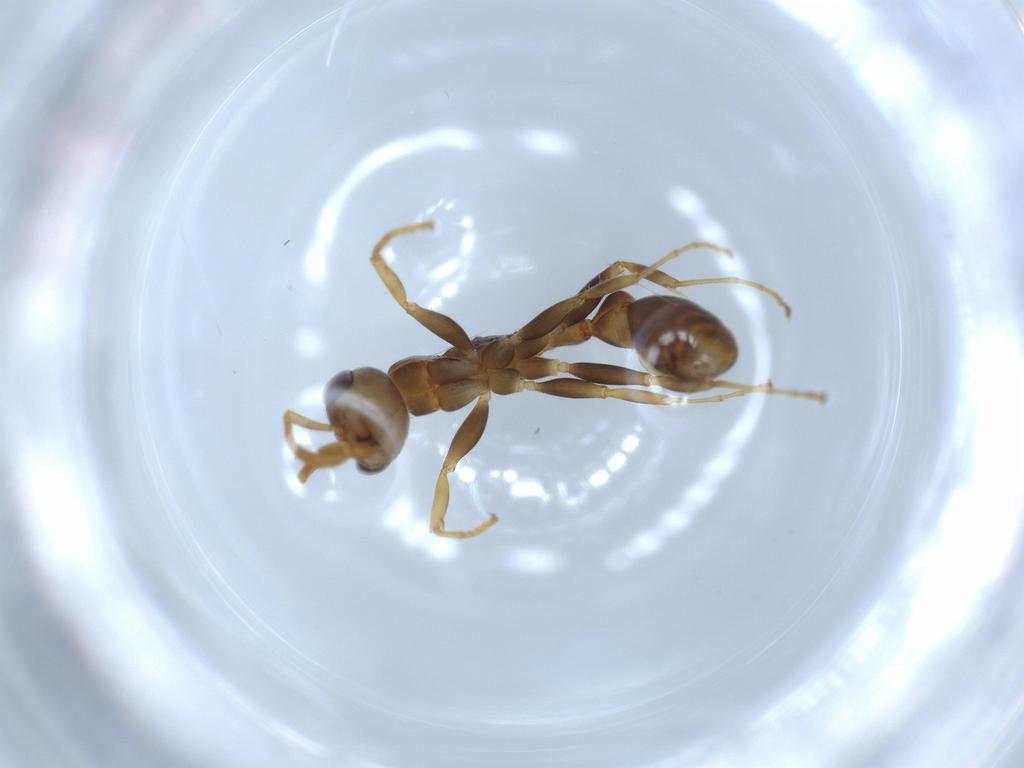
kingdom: Animalia
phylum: Arthropoda
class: Insecta
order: Hymenoptera
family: Formicidae
